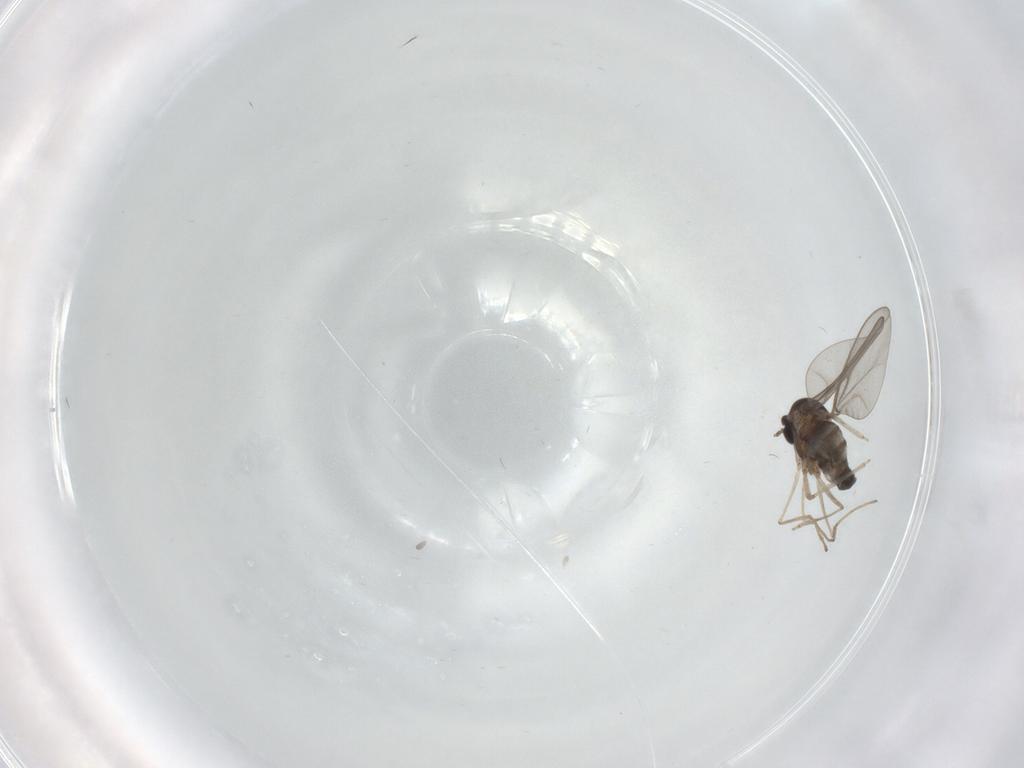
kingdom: Animalia
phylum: Arthropoda
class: Insecta
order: Diptera
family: Cecidomyiidae
